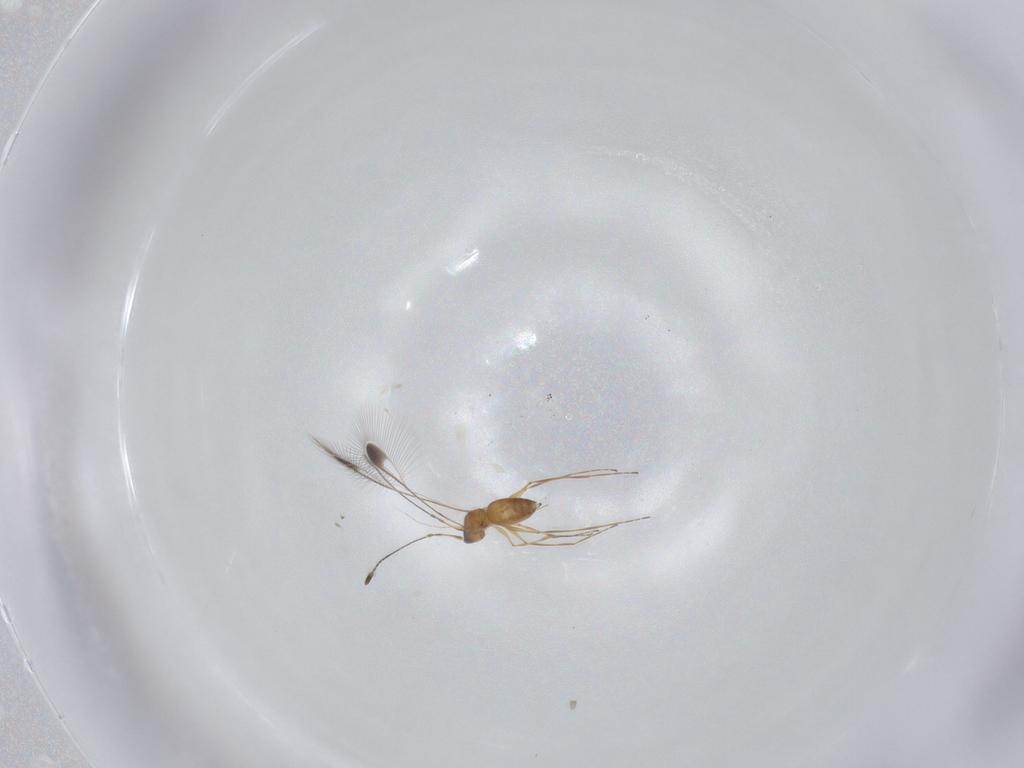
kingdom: Animalia
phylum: Arthropoda
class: Insecta
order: Hymenoptera
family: Mymaridae
